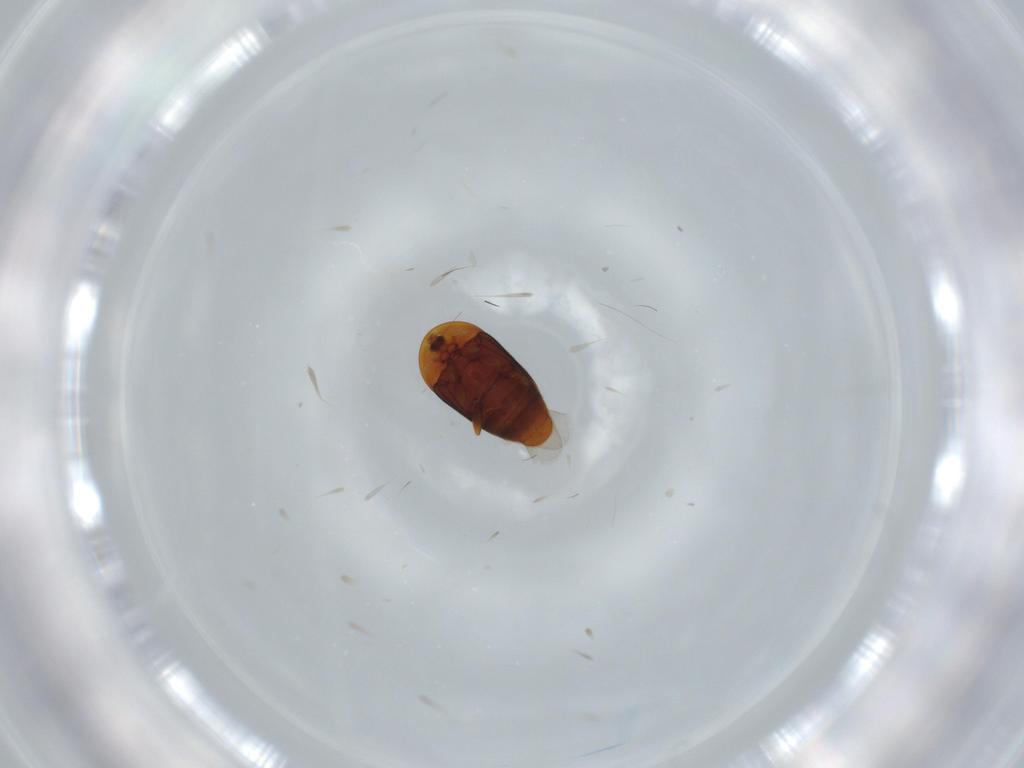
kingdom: Animalia
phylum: Arthropoda
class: Insecta
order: Coleoptera
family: Corylophidae
